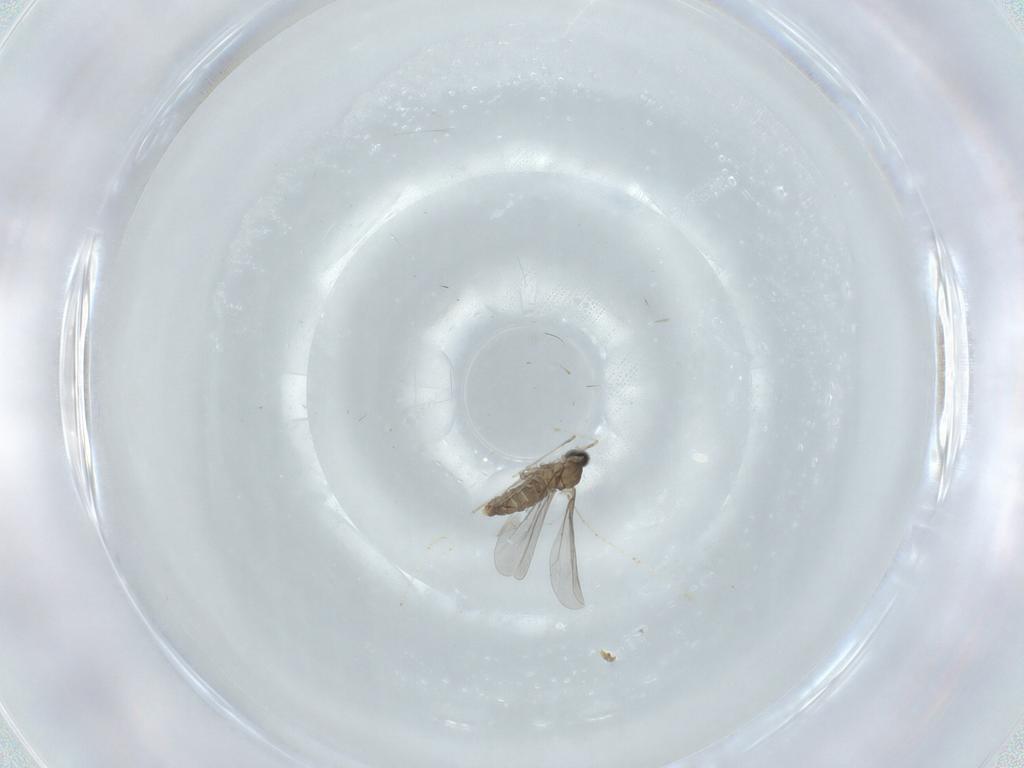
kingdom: Animalia
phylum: Arthropoda
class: Insecta
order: Diptera
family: Cecidomyiidae
